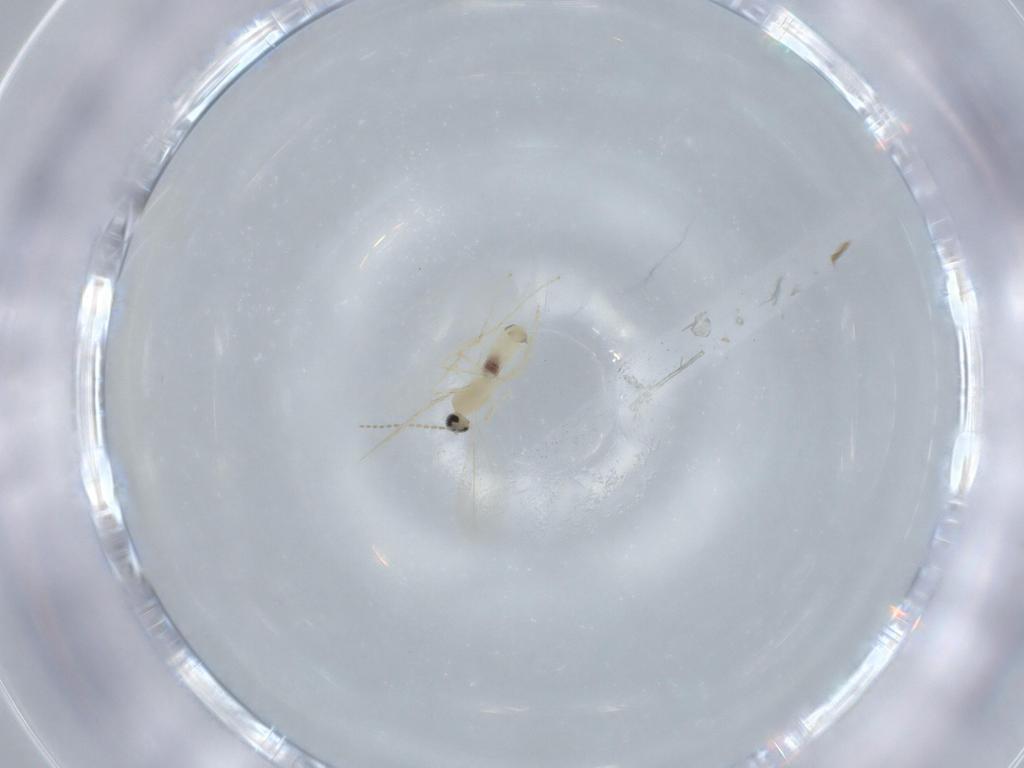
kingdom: Animalia
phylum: Arthropoda
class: Insecta
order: Diptera
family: Cecidomyiidae
